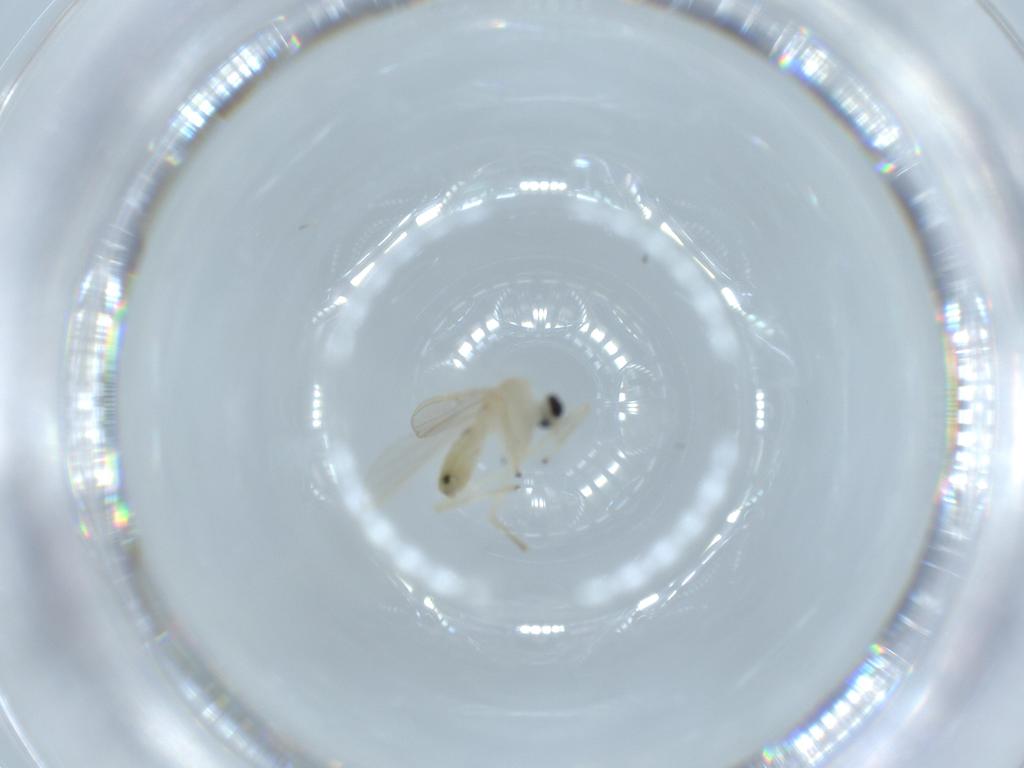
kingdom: Animalia
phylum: Arthropoda
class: Insecta
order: Diptera
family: Chironomidae
